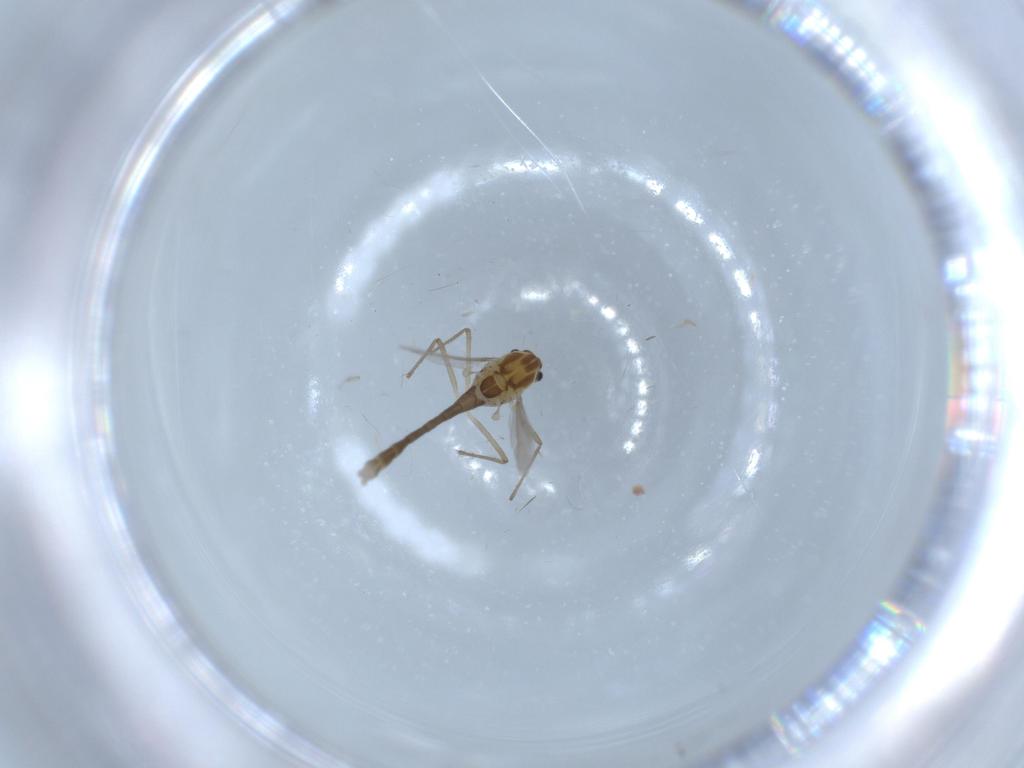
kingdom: Animalia
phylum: Arthropoda
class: Insecta
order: Diptera
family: Chironomidae
